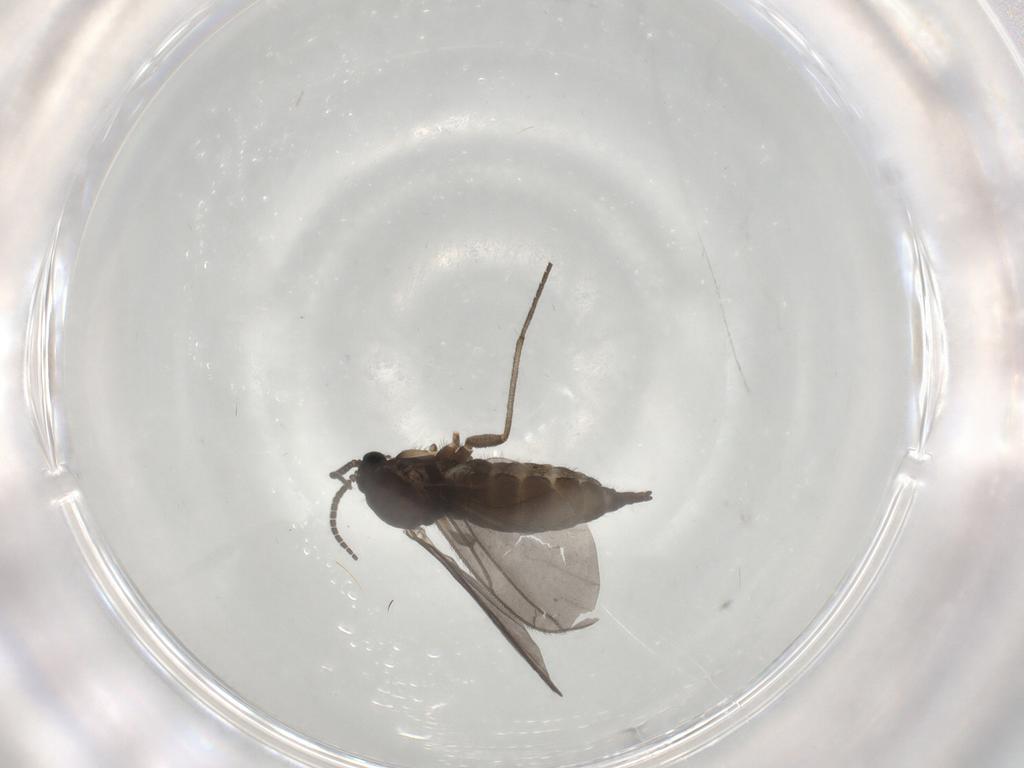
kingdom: Animalia
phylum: Arthropoda
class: Insecta
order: Diptera
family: Sciaridae
